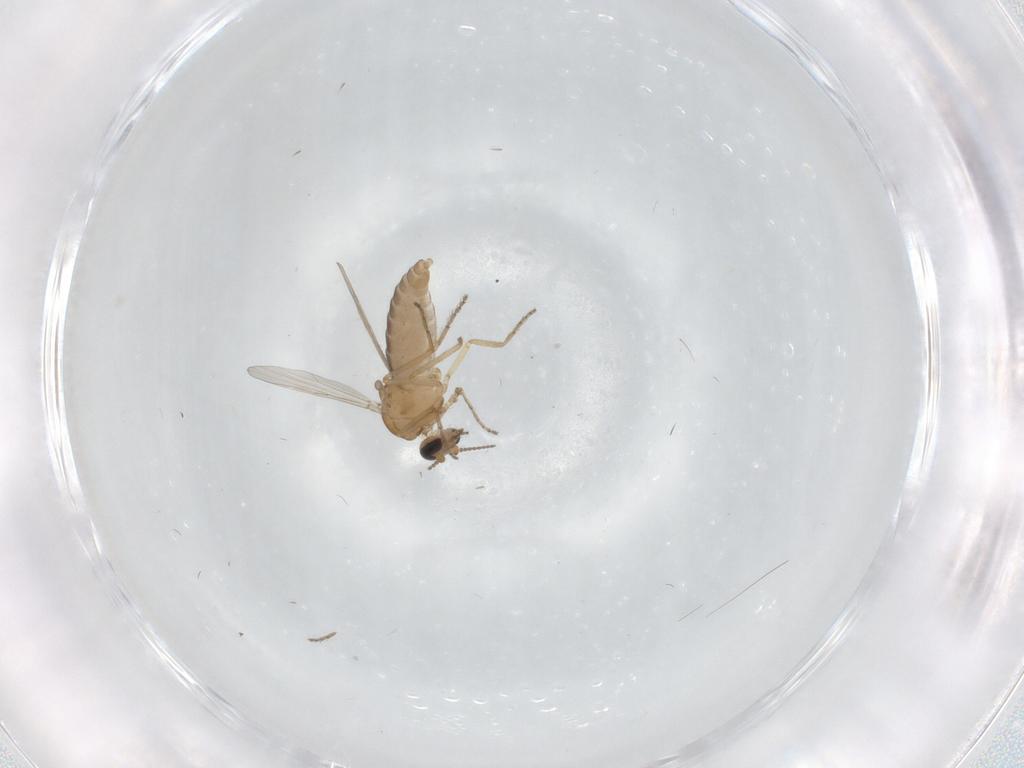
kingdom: Animalia
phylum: Arthropoda
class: Insecta
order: Diptera
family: Ceratopogonidae
